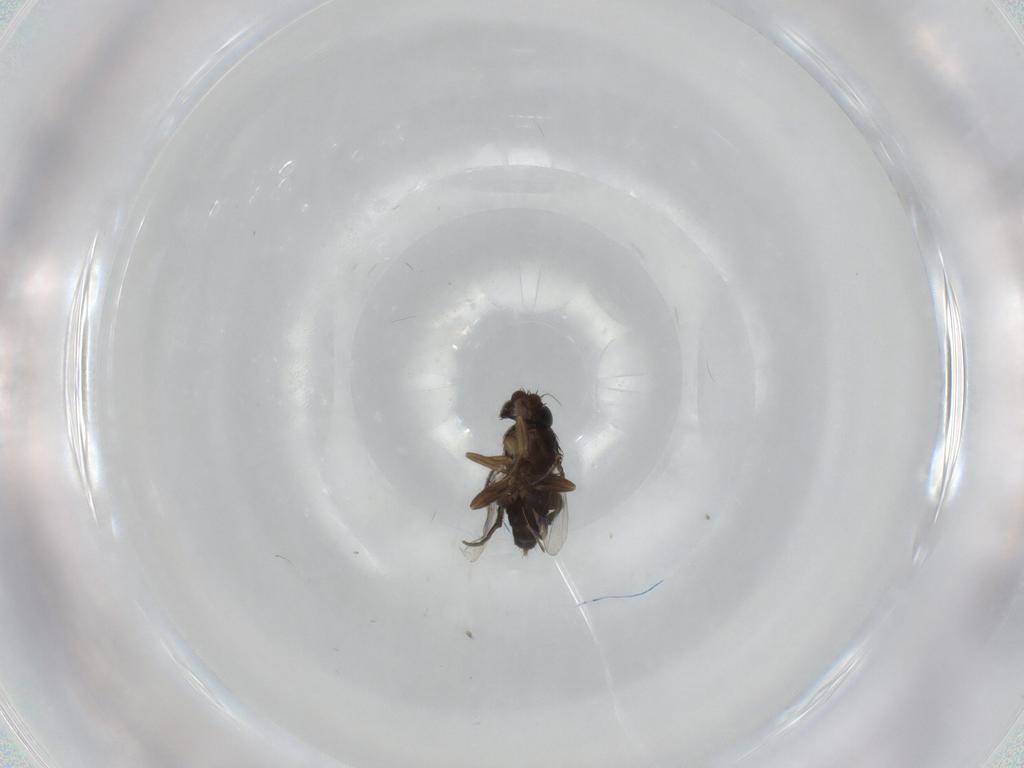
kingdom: Animalia
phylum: Arthropoda
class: Insecta
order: Diptera
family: Phoridae
